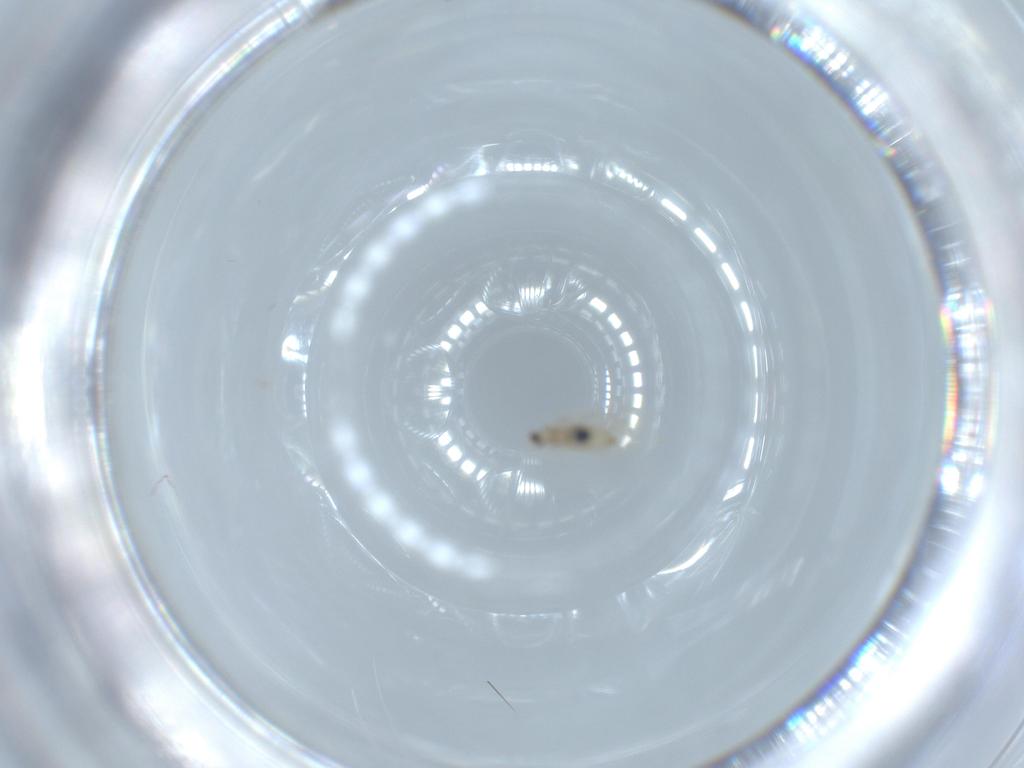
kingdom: Animalia
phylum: Arthropoda
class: Insecta
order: Diptera
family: Cecidomyiidae
